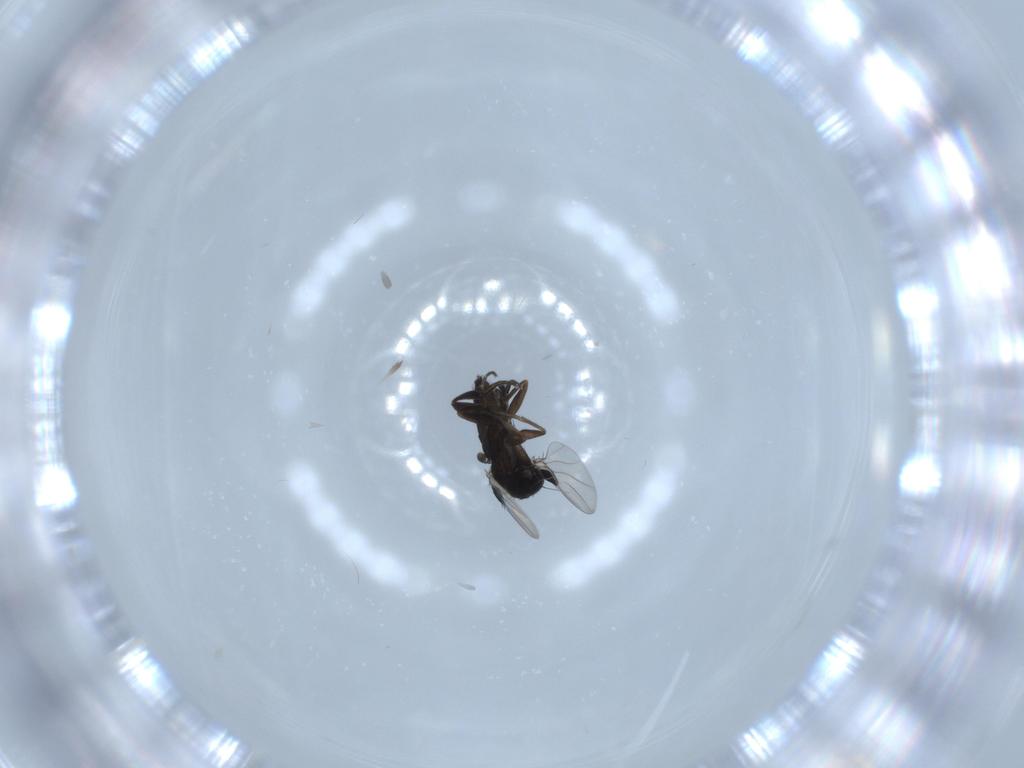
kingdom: Animalia
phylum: Arthropoda
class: Insecta
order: Diptera
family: Phoridae
